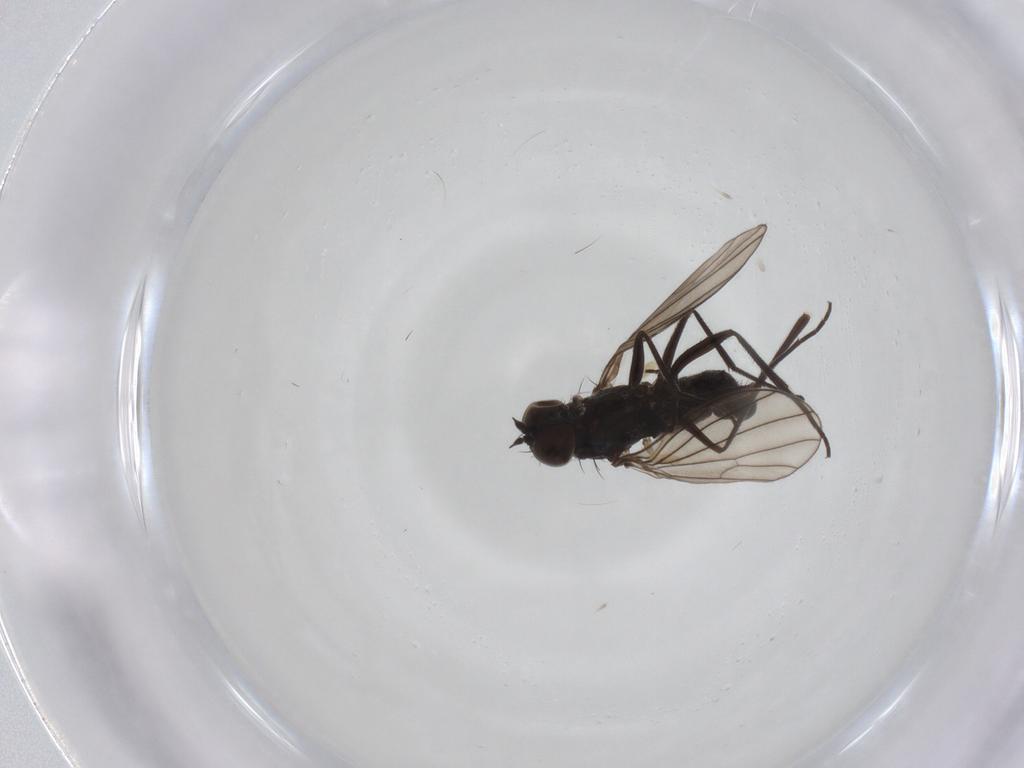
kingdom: Animalia
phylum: Arthropoda
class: Insecta
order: Diptera
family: Dolichopodidae
